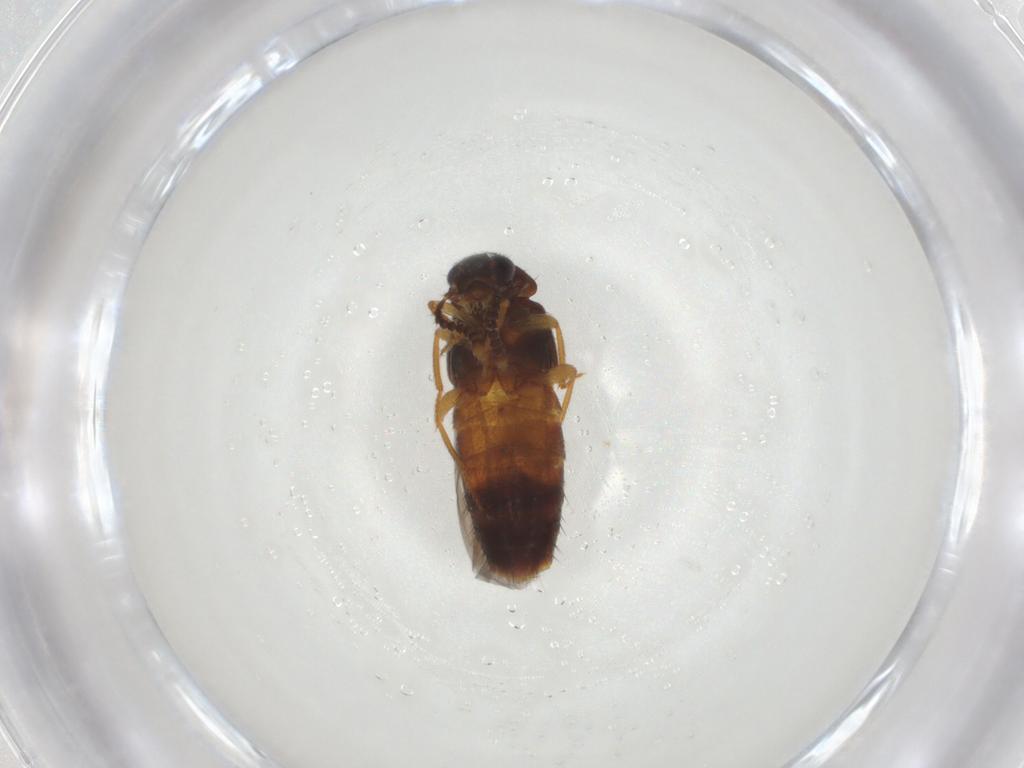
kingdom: Animalia
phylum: Arthropoda
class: Insecta
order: Coleoptera
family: Staphylinidae
